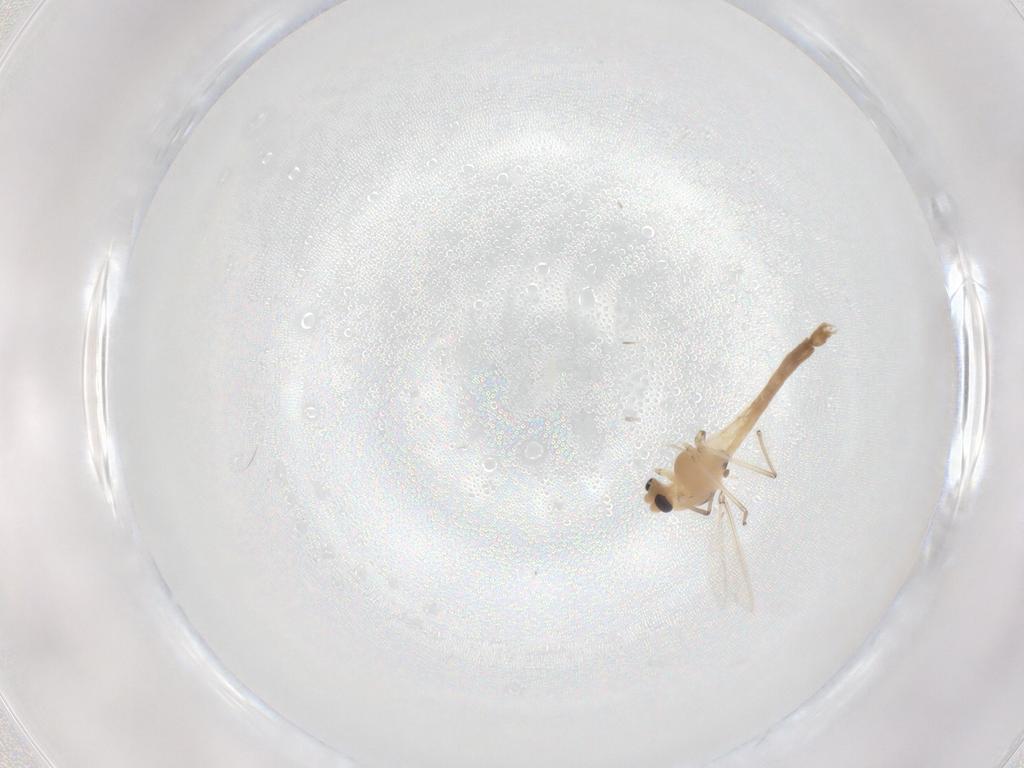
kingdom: Animalia
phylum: Arthropoda
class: Insecta
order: Diptera
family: Chironomidae
